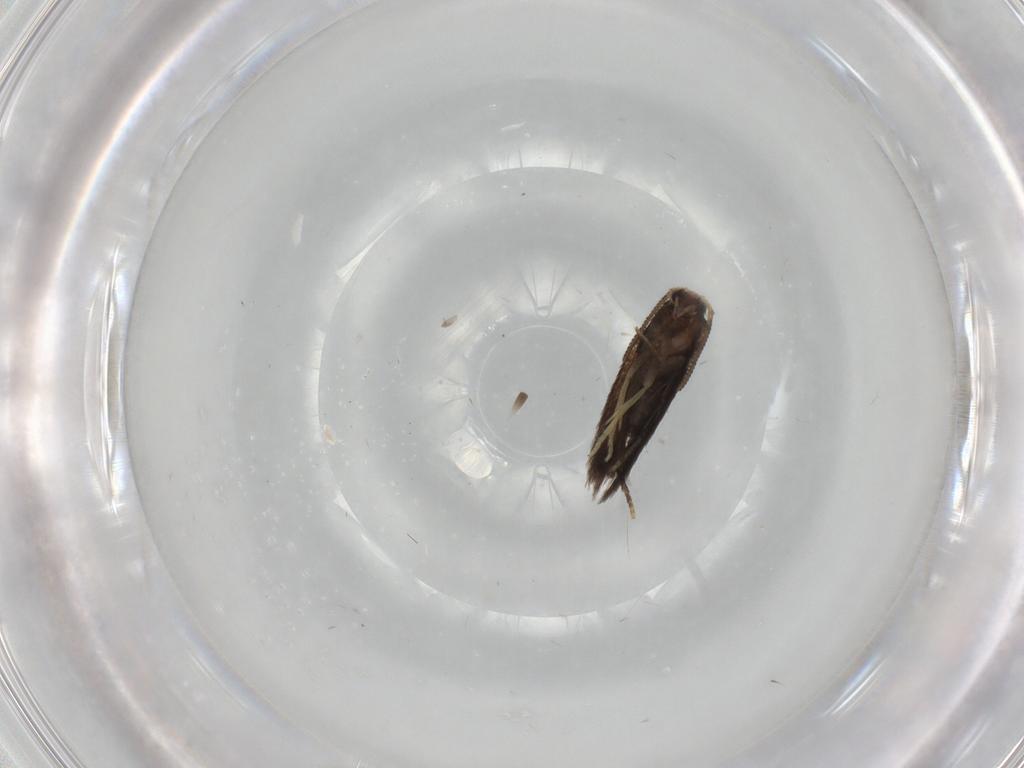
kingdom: Animalia
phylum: Arthropoda
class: Insecta
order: Lepidoptera
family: Nepticulidae
